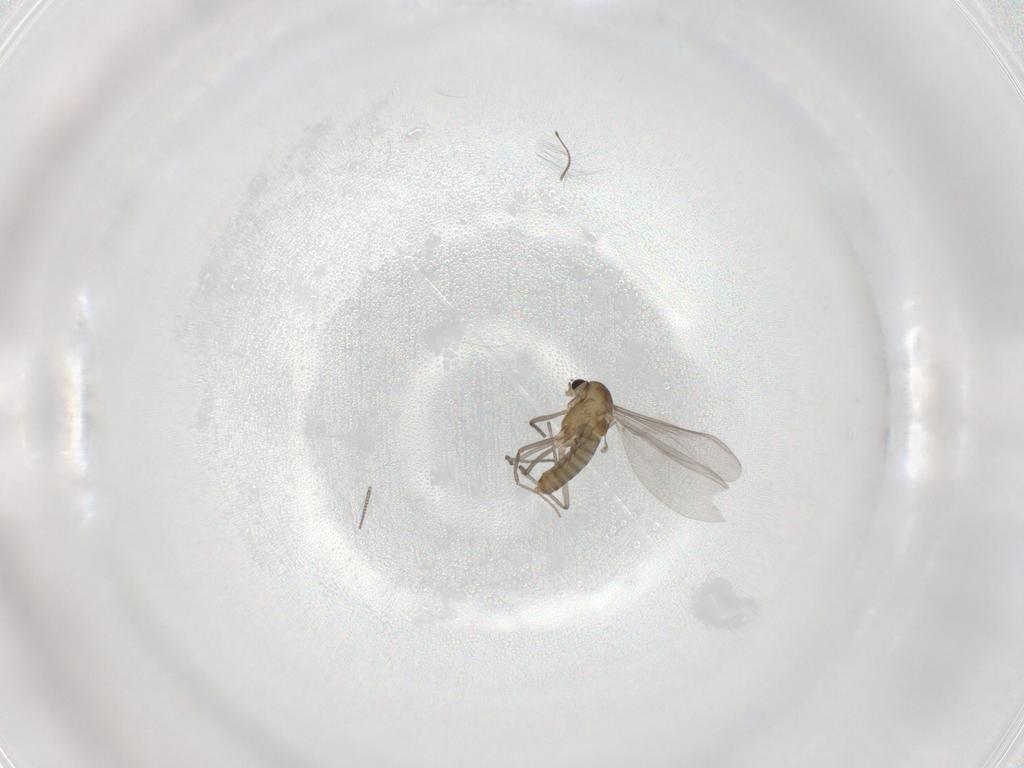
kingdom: Animalia
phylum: Arthropoda
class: Insecta
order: Diptera
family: Chironomidae
